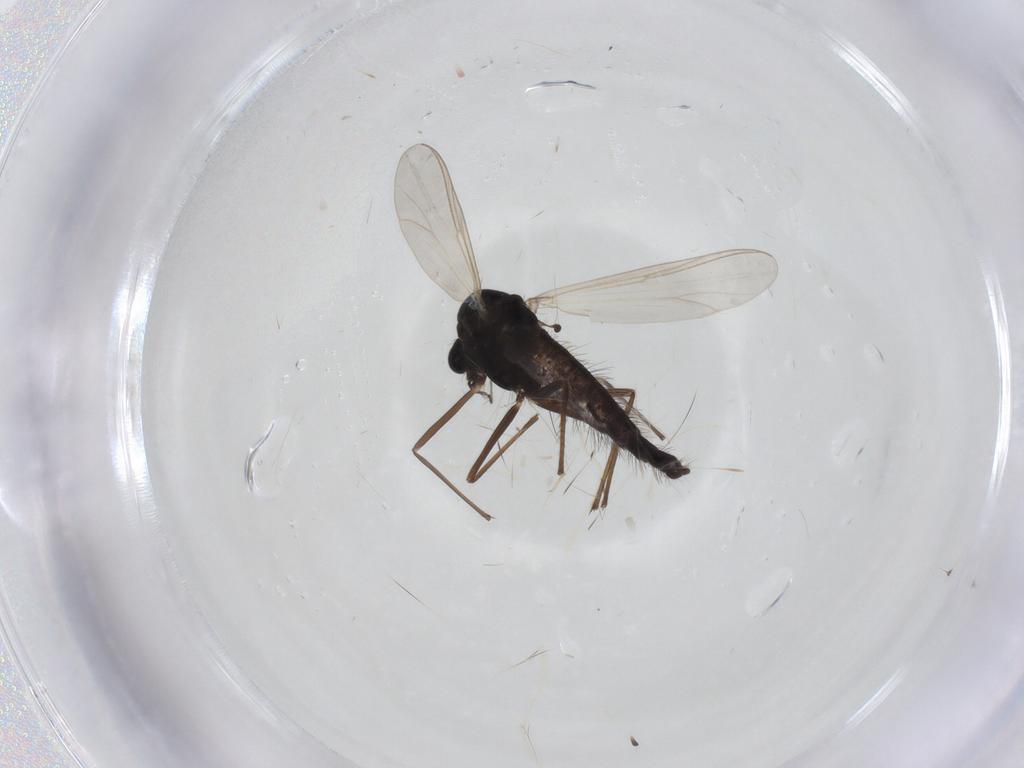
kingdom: Animalia
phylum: Arthropoda
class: Insecta
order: Diptera
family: Chironomidae
